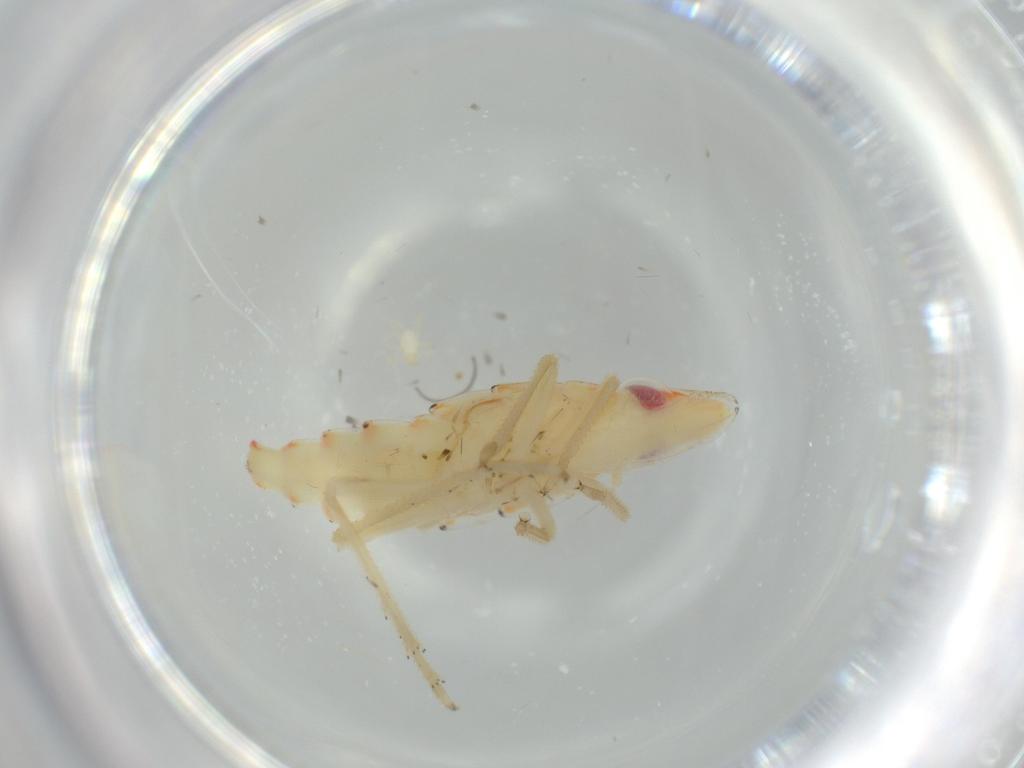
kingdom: Animalia
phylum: Arthropoda
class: Insecta
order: Hemiptera
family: Tropiduchidae
